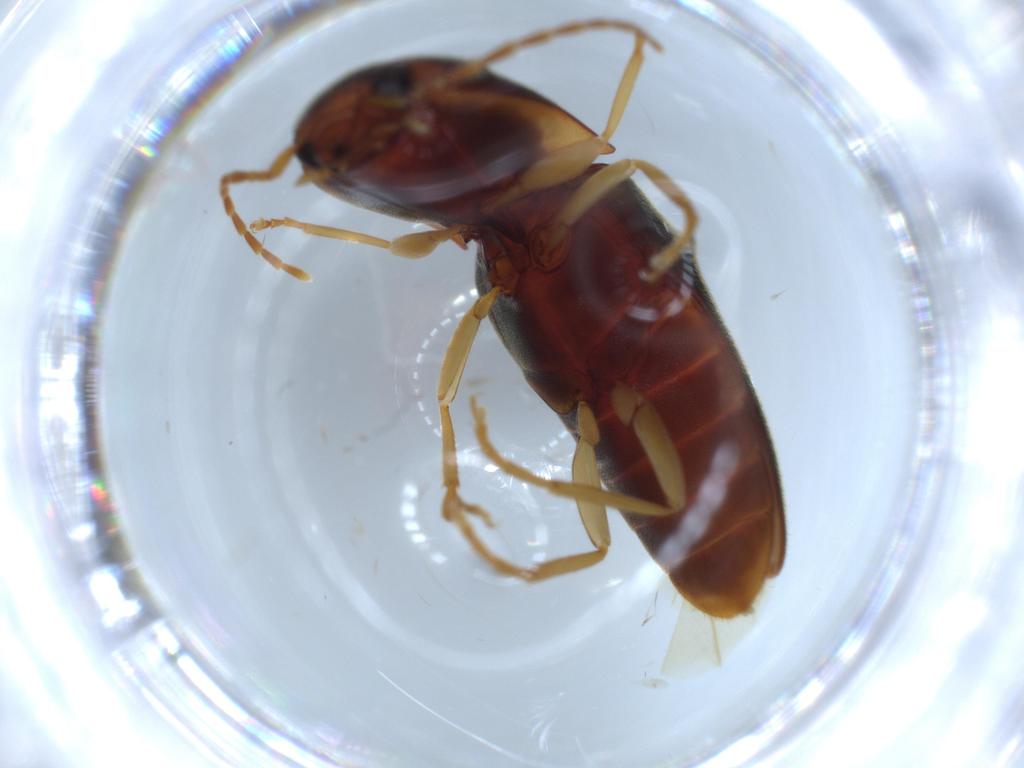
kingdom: Animalia
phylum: Arthropoda
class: Insecta
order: Coleoptera
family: Elateridae
